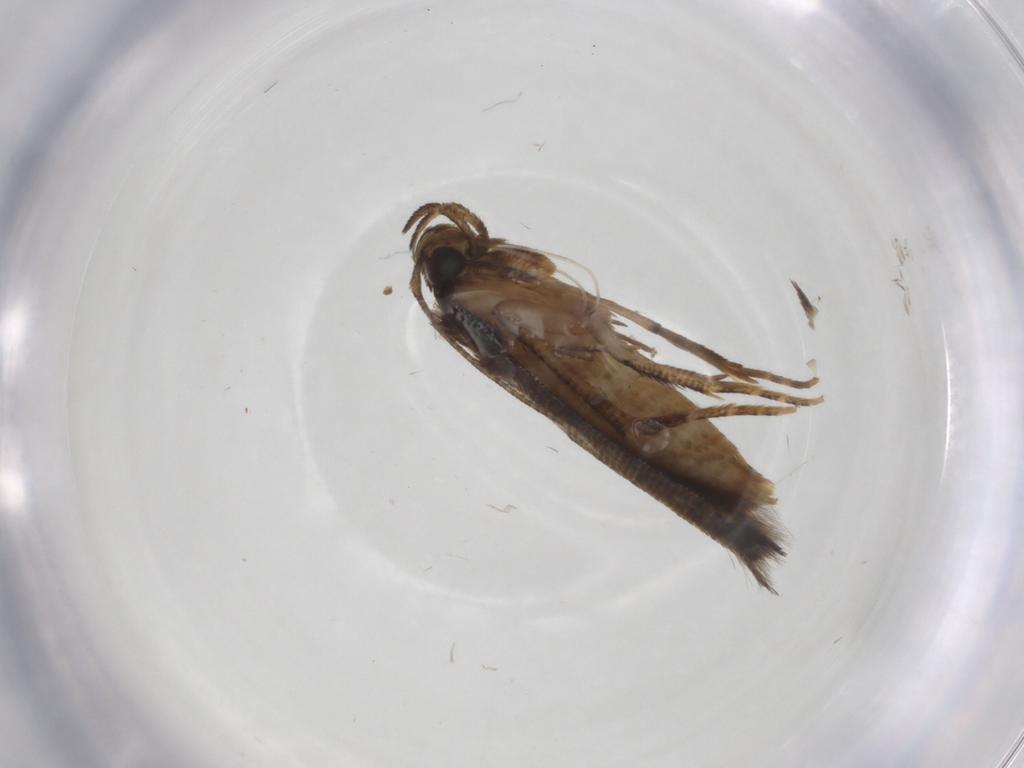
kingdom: Animalia
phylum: Arthropoda
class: Insecta
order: Lepidoptera
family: Cosmopterigidae
